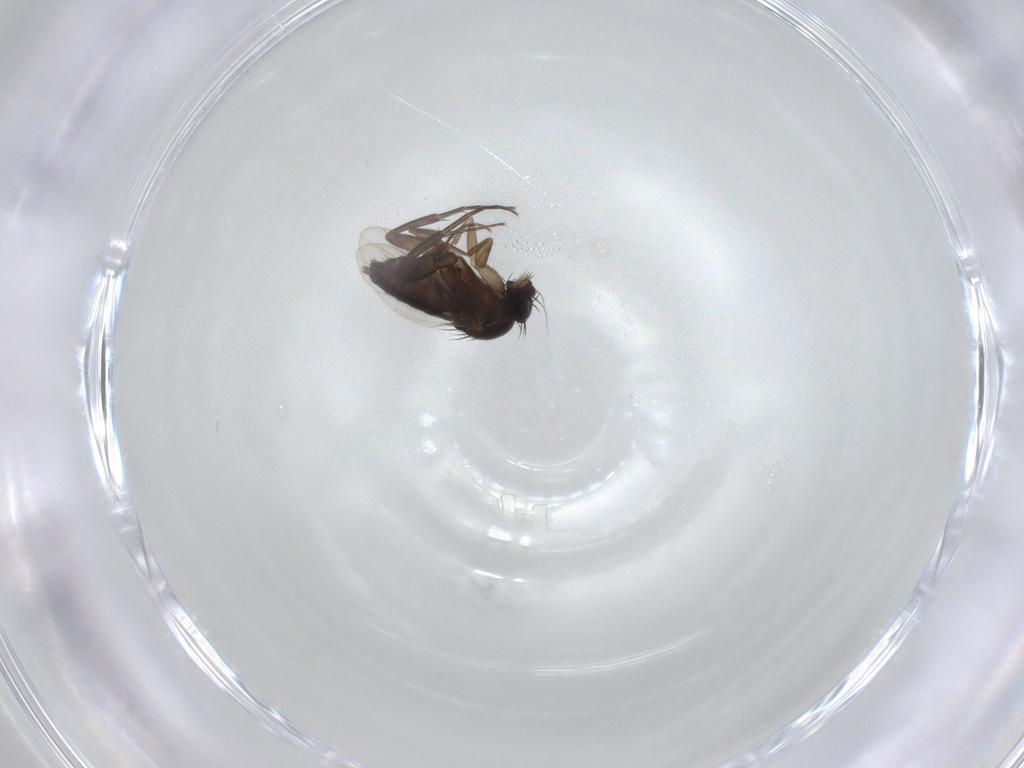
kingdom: Animalia
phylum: Arthropoda
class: Insecta
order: Diptera
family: Phoridae
